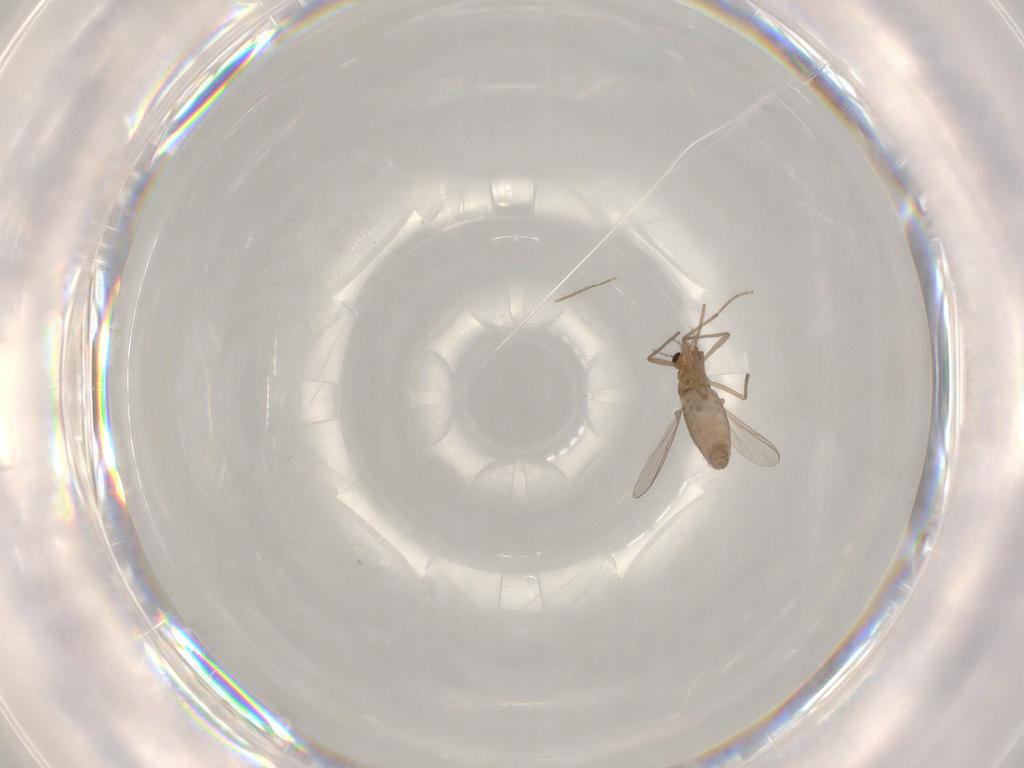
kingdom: Animalia
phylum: Arthropoda
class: Insecta
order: Diptera
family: Chironomidae
